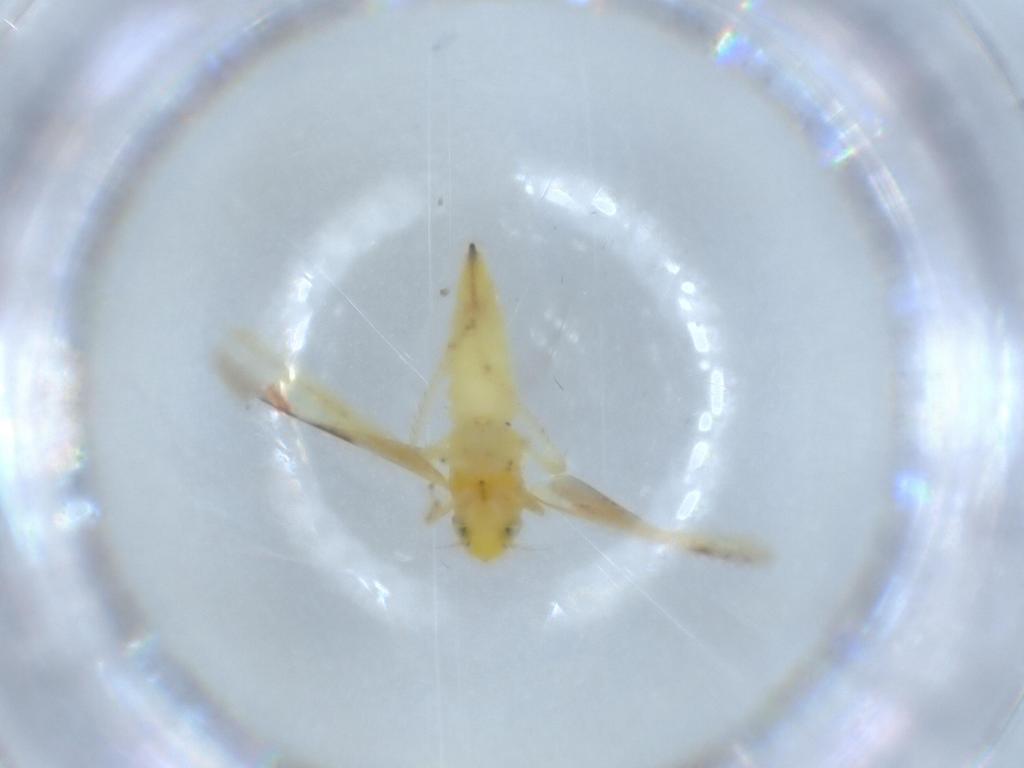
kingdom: Animalia
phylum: Arthropoda
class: Insecta
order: Hemiptera
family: Cicadellidae
